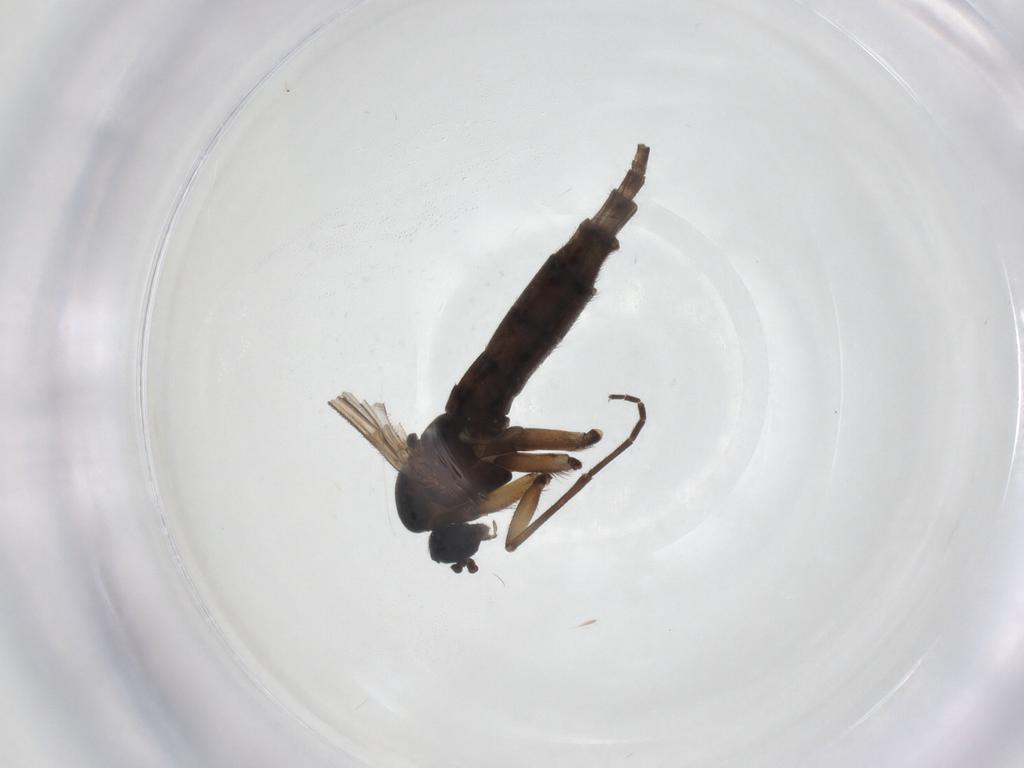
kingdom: Animalia
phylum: Arthropoda
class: Insecta
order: Diptera
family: Sciaridae
